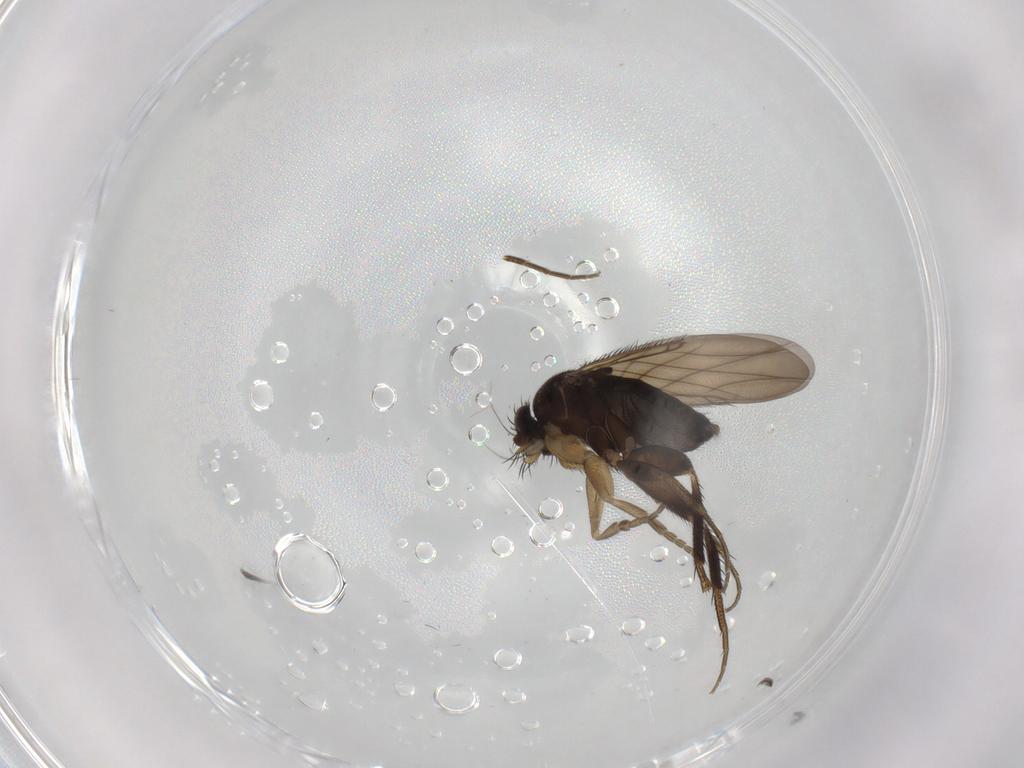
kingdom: Animalia
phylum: Arthropoda
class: Insecta
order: Diptera
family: Phoridae
